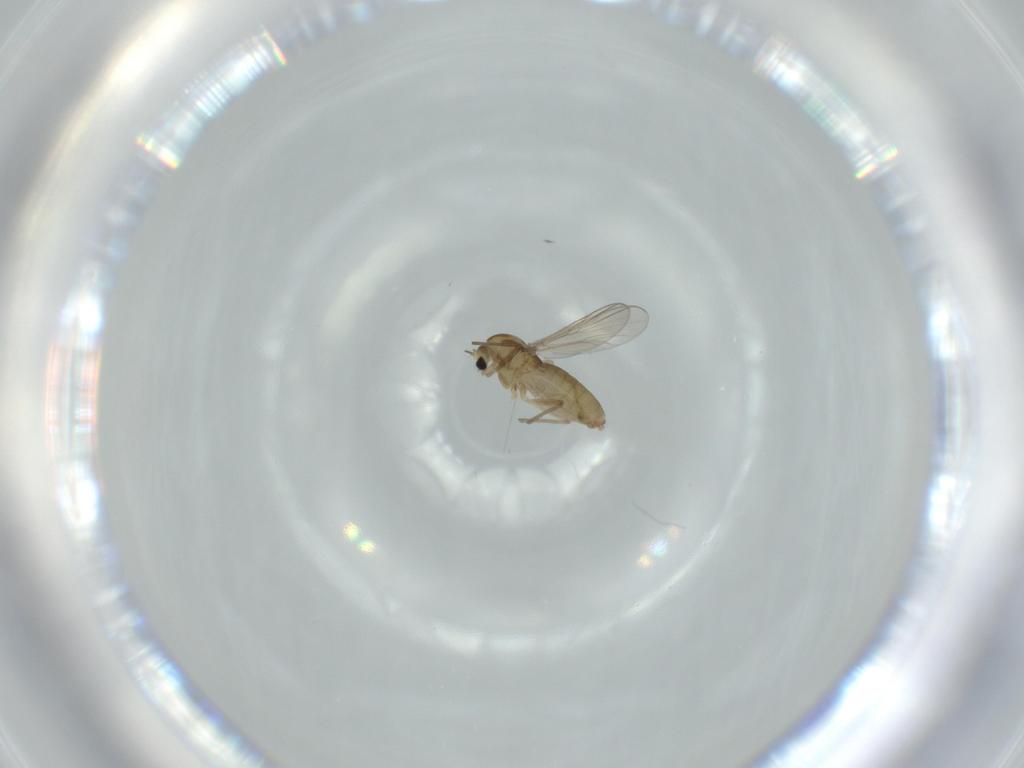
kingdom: Animalia
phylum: Arthropoda
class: Insecta
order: Diptera
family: Chironomidae
